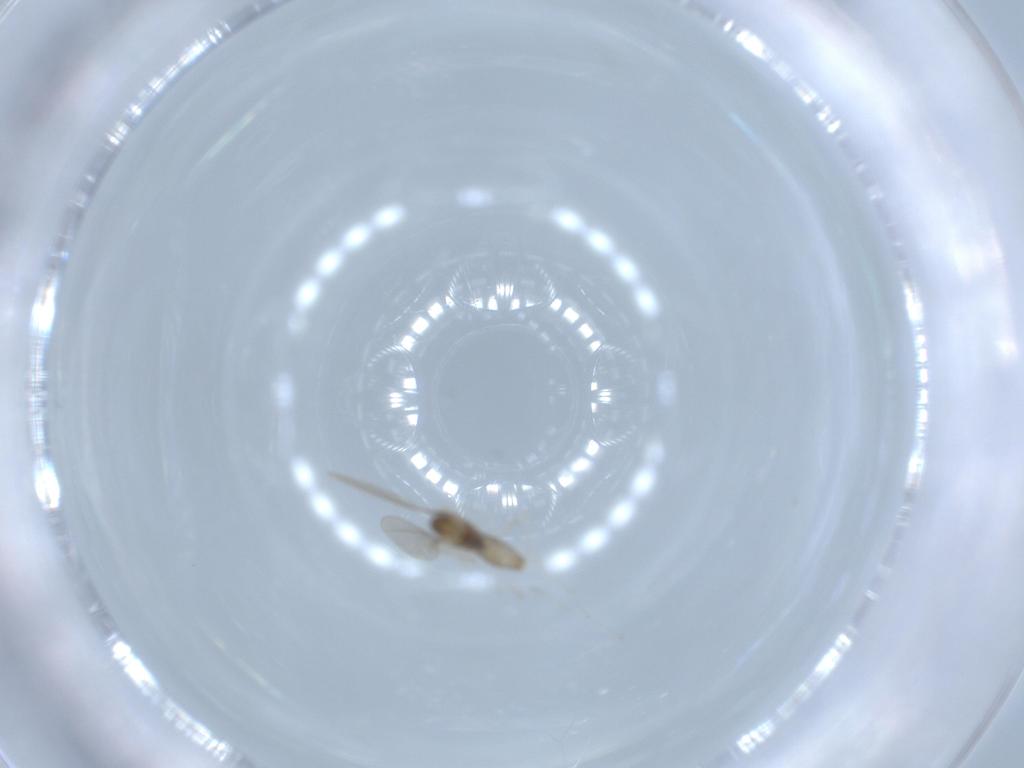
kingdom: Animalia
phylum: Arthropoda
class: Insecta
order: Diptera
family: Cecidomyiidae
